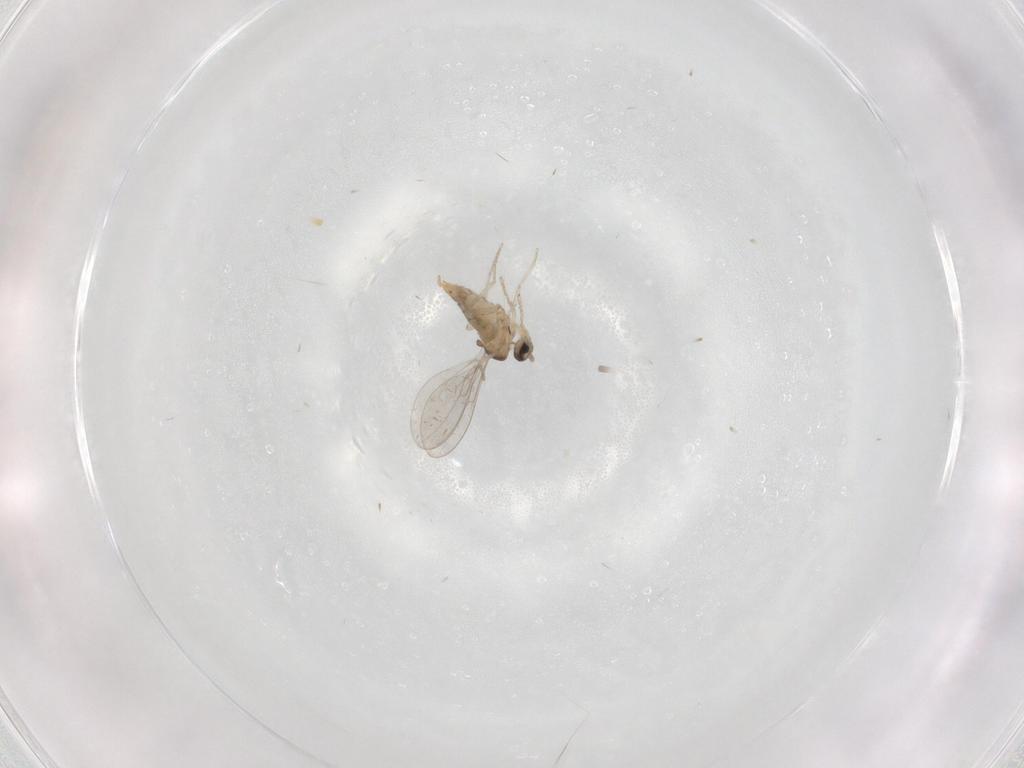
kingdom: Animalia
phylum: Arthropoda
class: Insecta
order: Diptera
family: Cecidomyiidae
